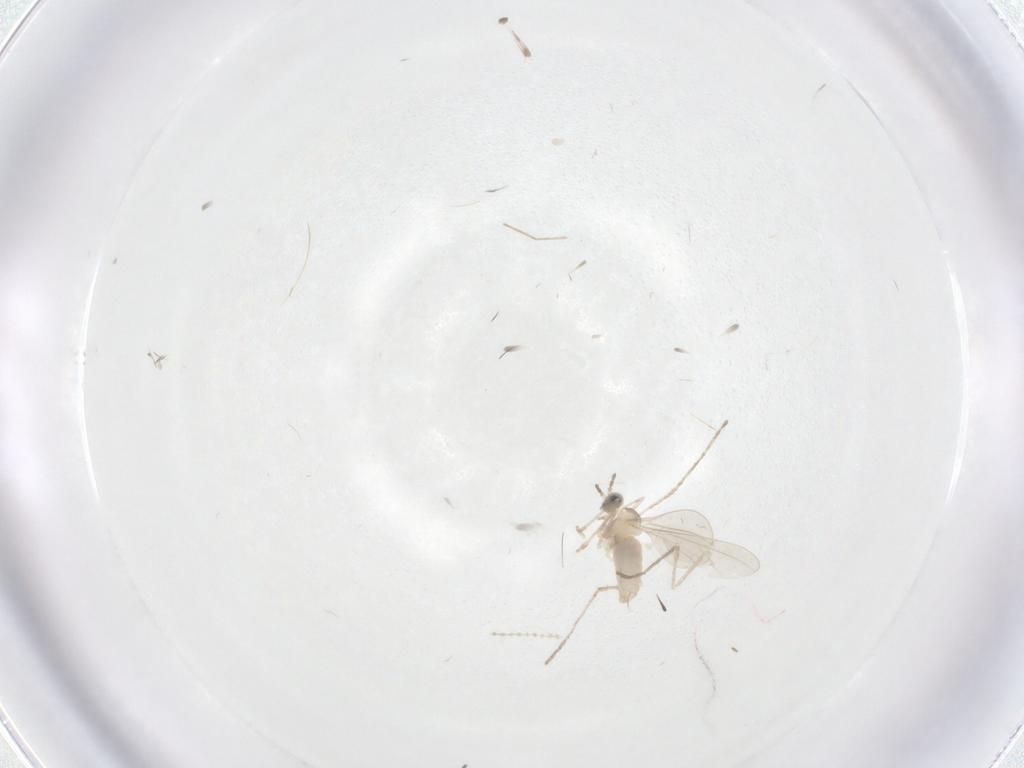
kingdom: Animalia
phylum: Arthropoda
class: Insecta
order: Diptera
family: Cecidomyiidae
